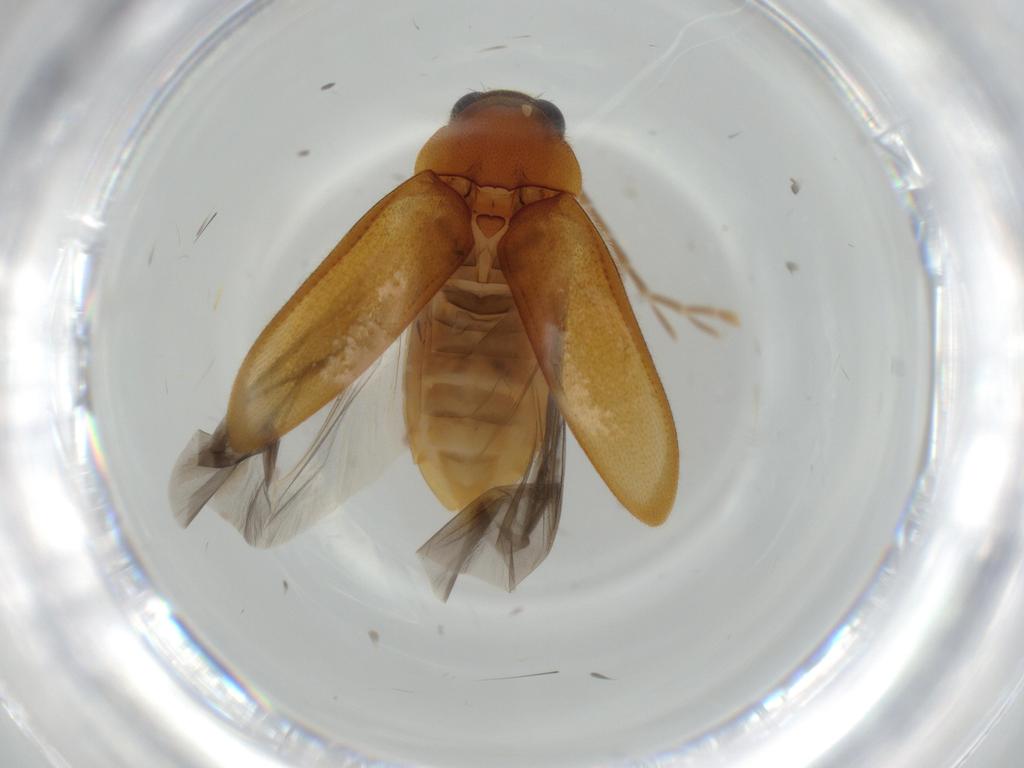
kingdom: Animalia
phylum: Arthropoda
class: Insecta
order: Coleoptera
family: Ptilodactylidae
